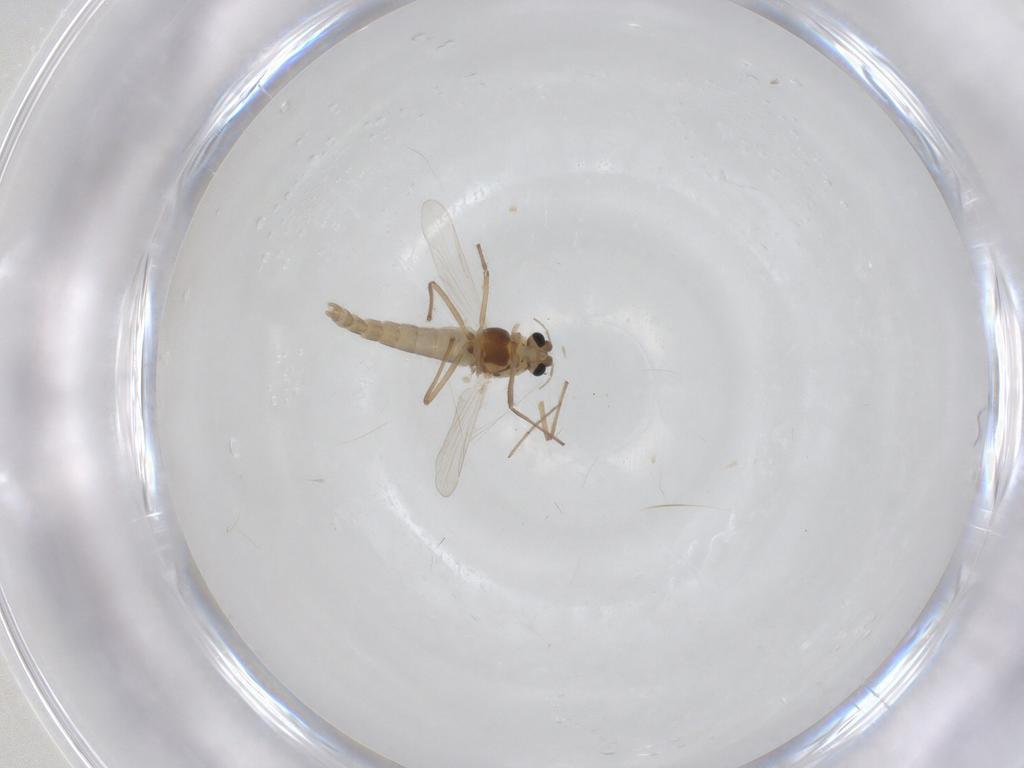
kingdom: Animalia
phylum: Arthropoda
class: Insecta
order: Diptera
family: Chironomidae
